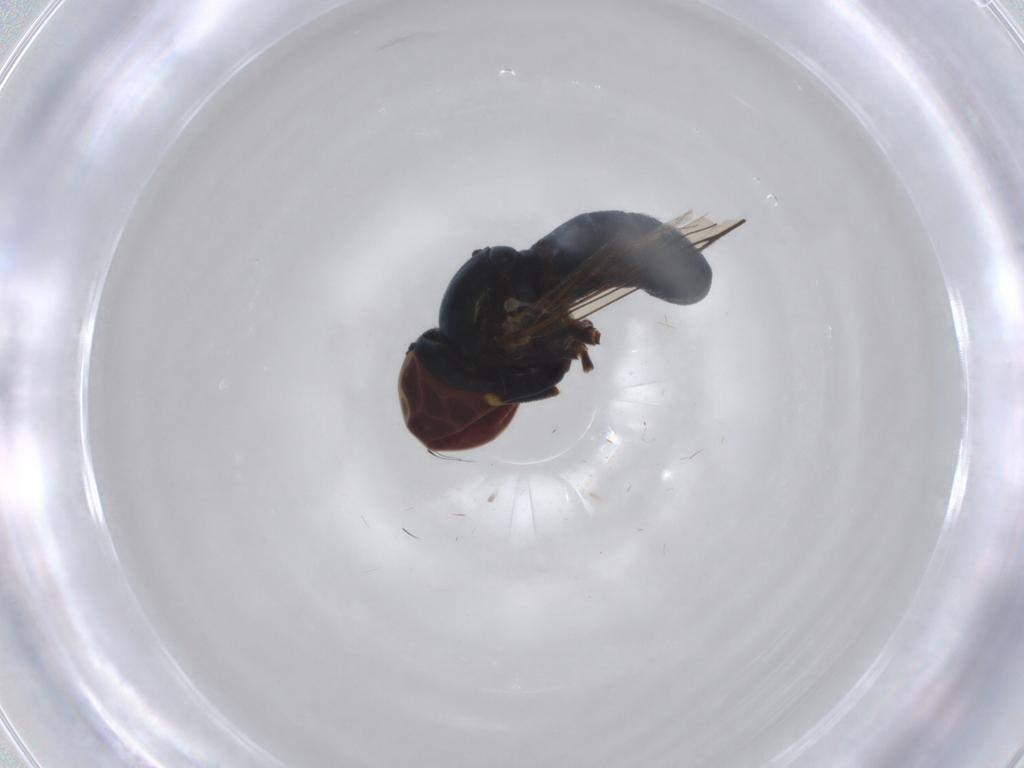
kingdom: Animalia
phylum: Arthropoda
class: Insecta
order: Diptera
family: Pipunculidae
